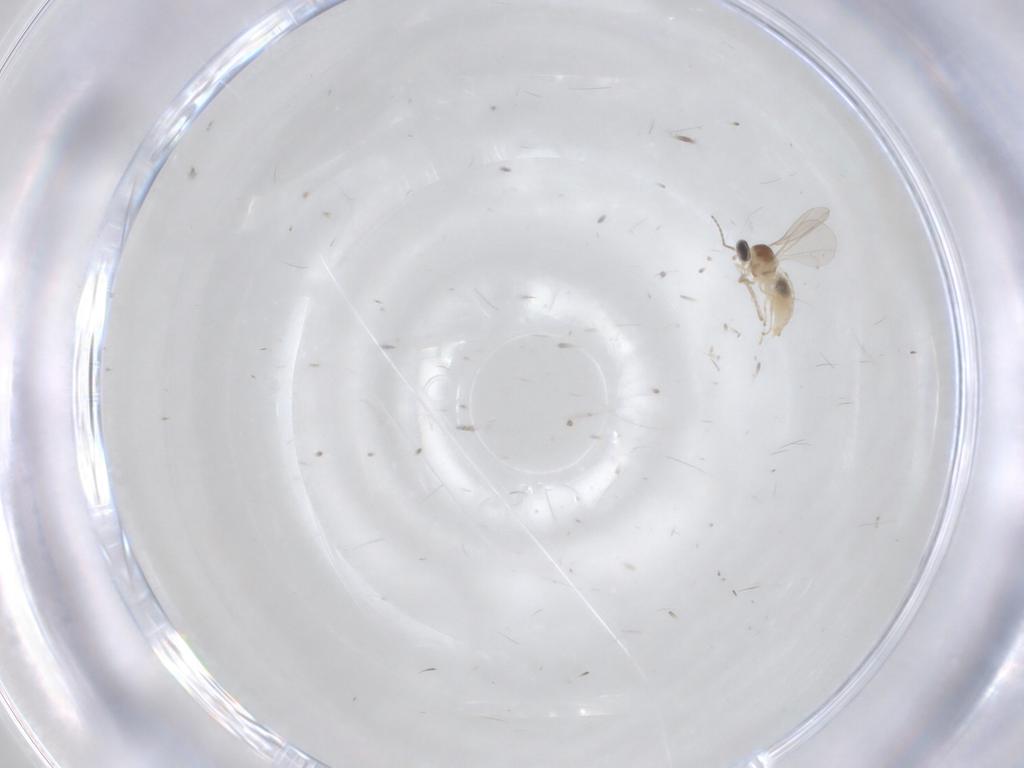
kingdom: Animalia
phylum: Arthropoda
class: Insecta
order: Diptera
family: Cecidomyiidae
